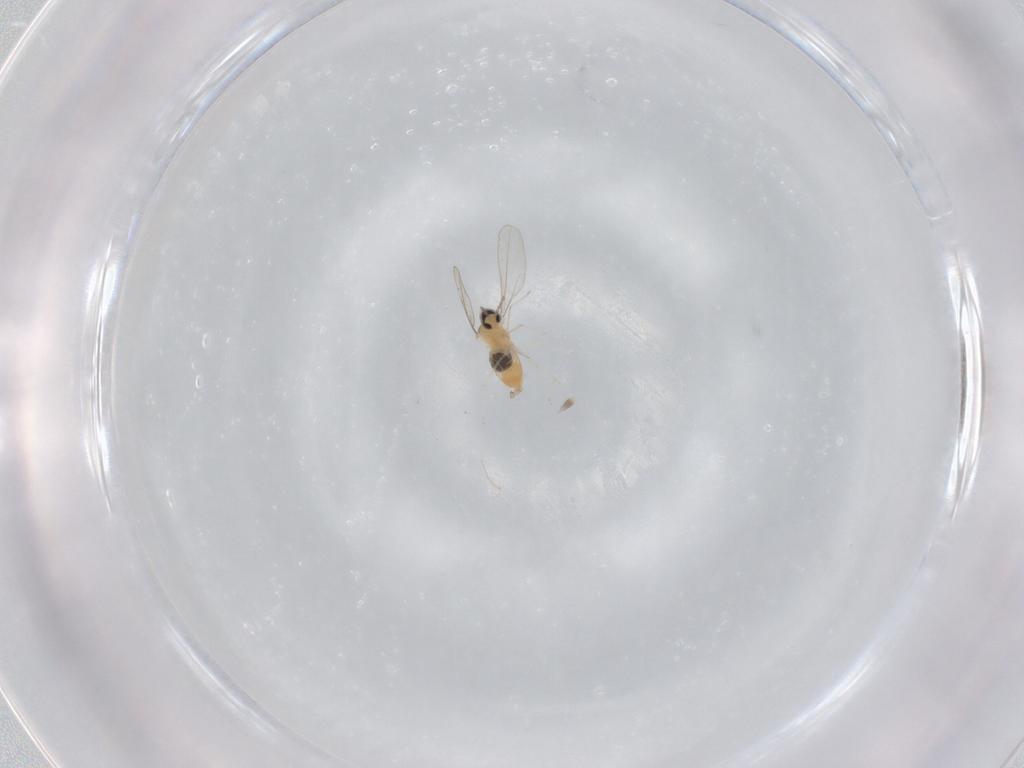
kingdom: Animalia
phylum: Arthropoda
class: Insecta
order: Diptera
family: Cecidomyiidae
